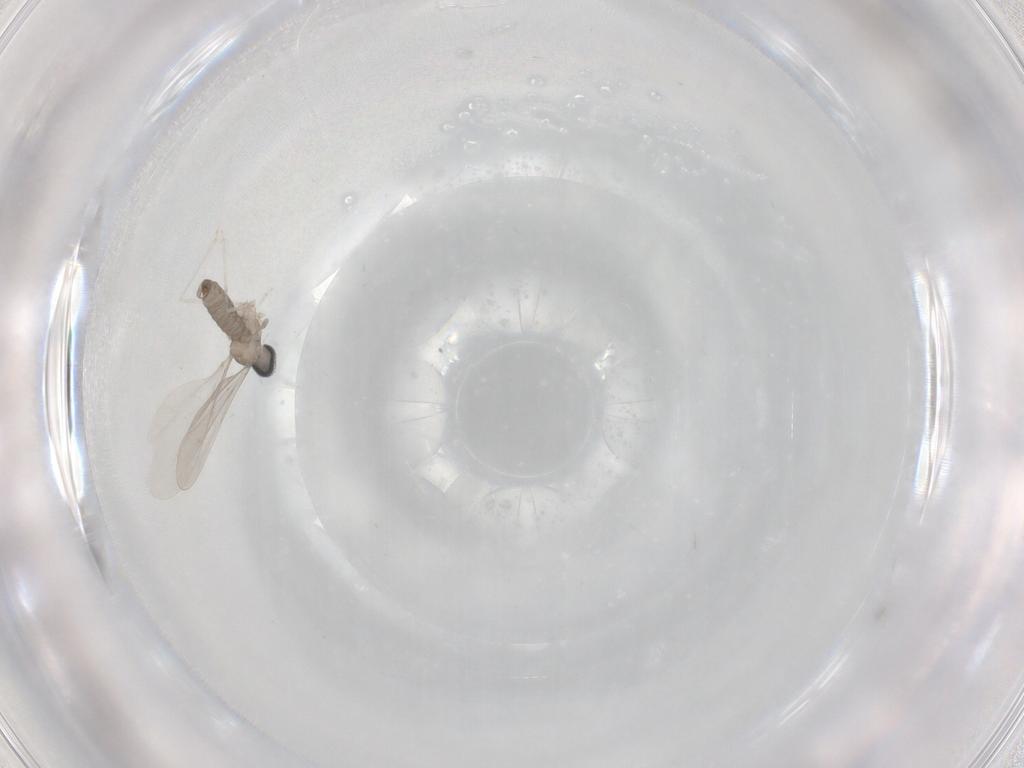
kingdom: Animalia
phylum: Arthropoda
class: Insecta
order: Diptera
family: Cecidomyiidae
